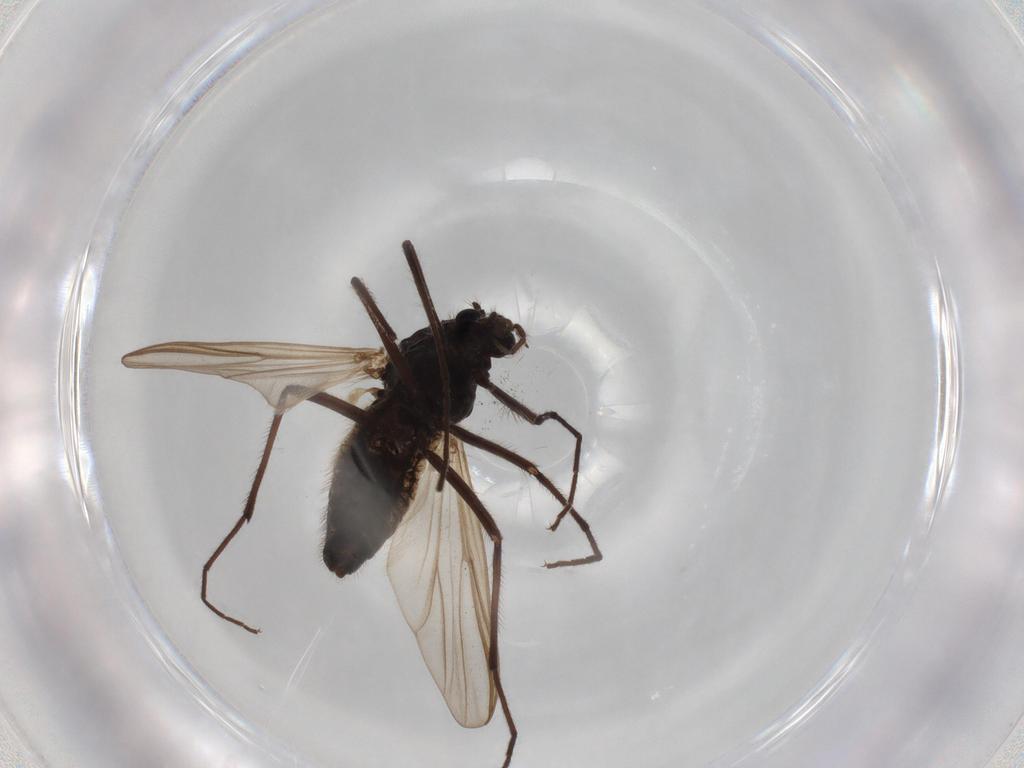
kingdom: Animalia
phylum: Arthropoda
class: Insecta
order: Diptera
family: Hybotidae
